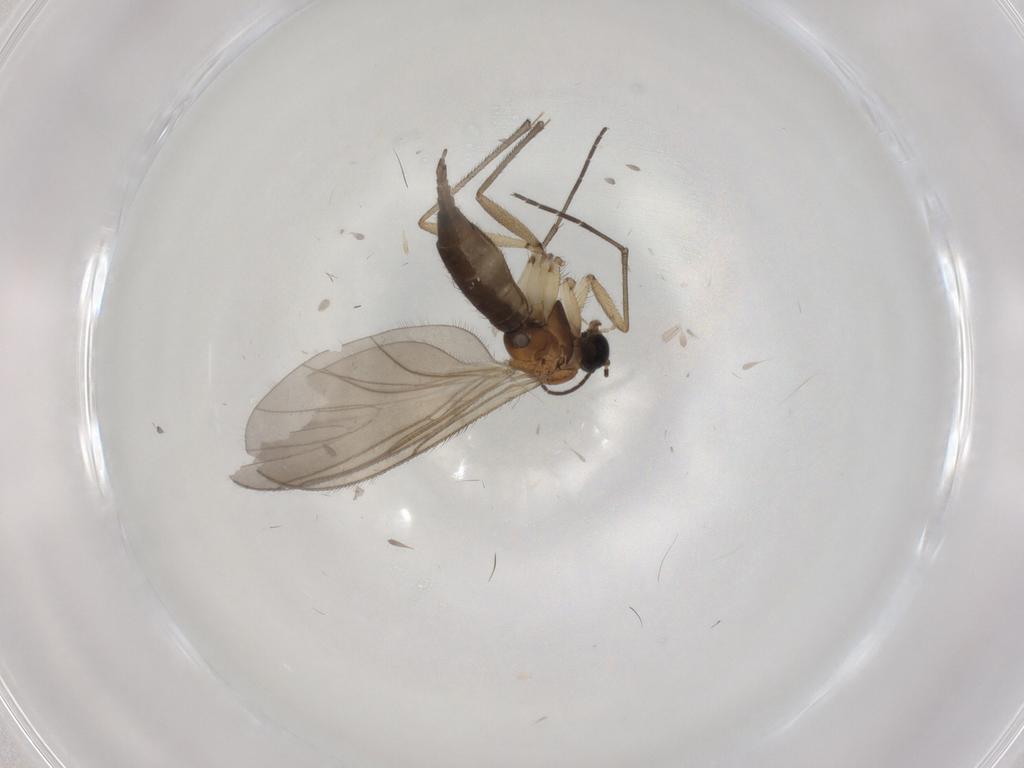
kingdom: Animalia
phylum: Arthropoda
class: Insecta
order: Diptera
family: Sciaridae
